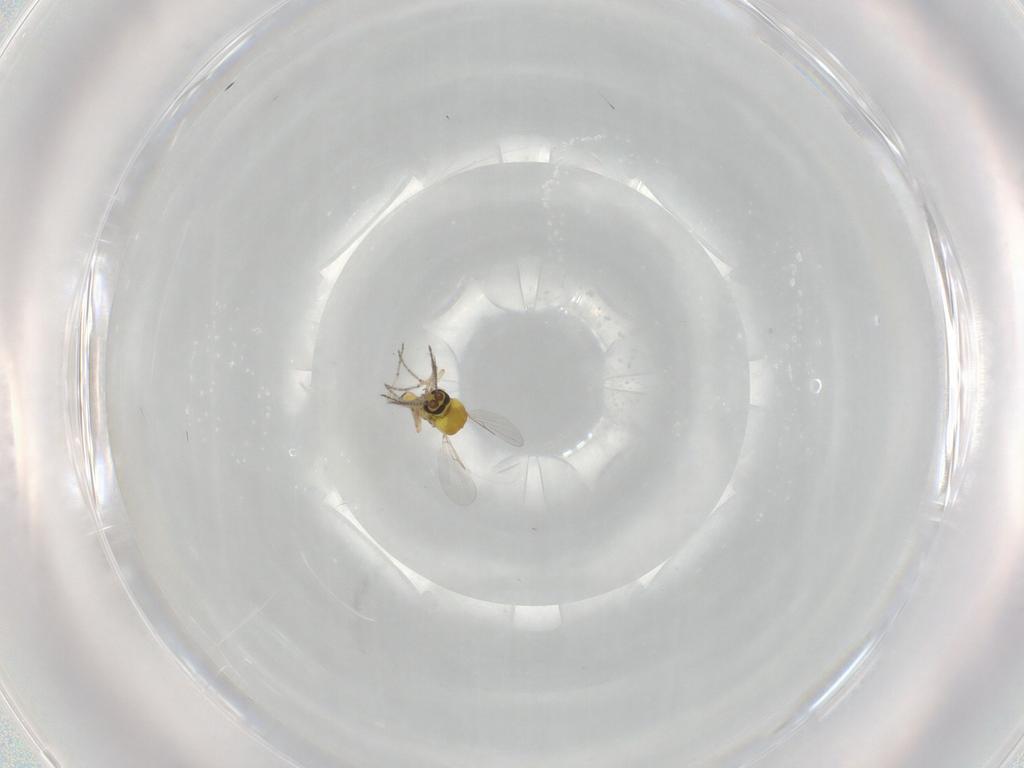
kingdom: Animalia
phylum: Arthropoda
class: Insecta
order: Diptera
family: Ceratopogonidae
